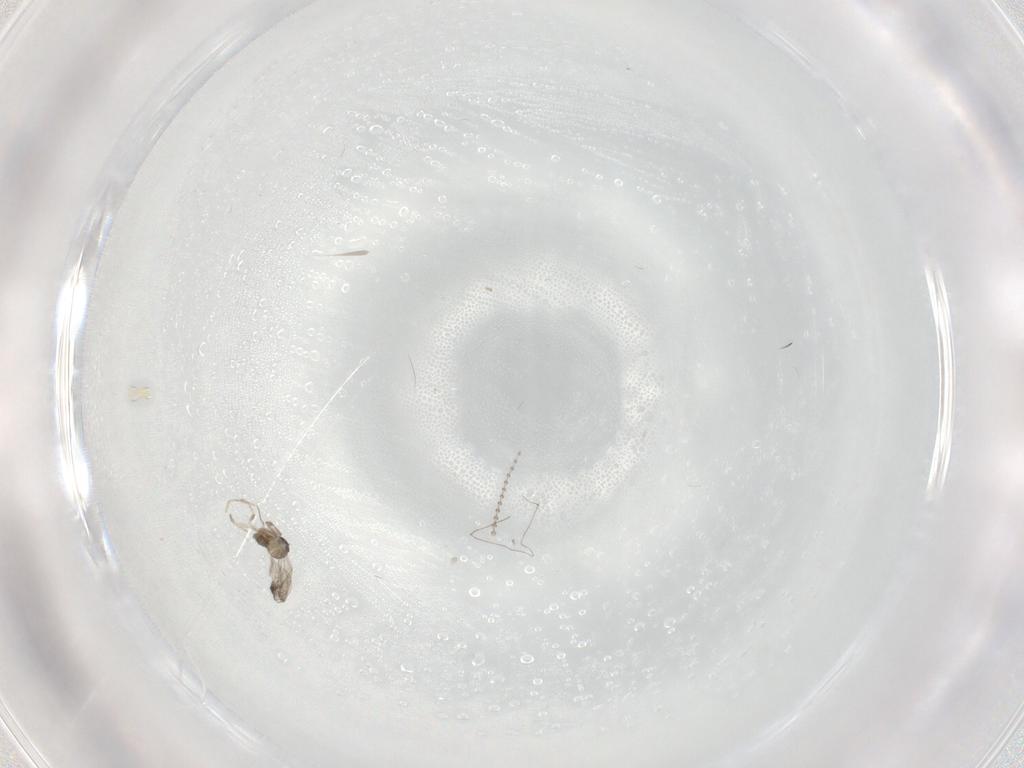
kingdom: Animalia
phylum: Arthropoda
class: Insecta
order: Diptera
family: Cecidomyiidae
